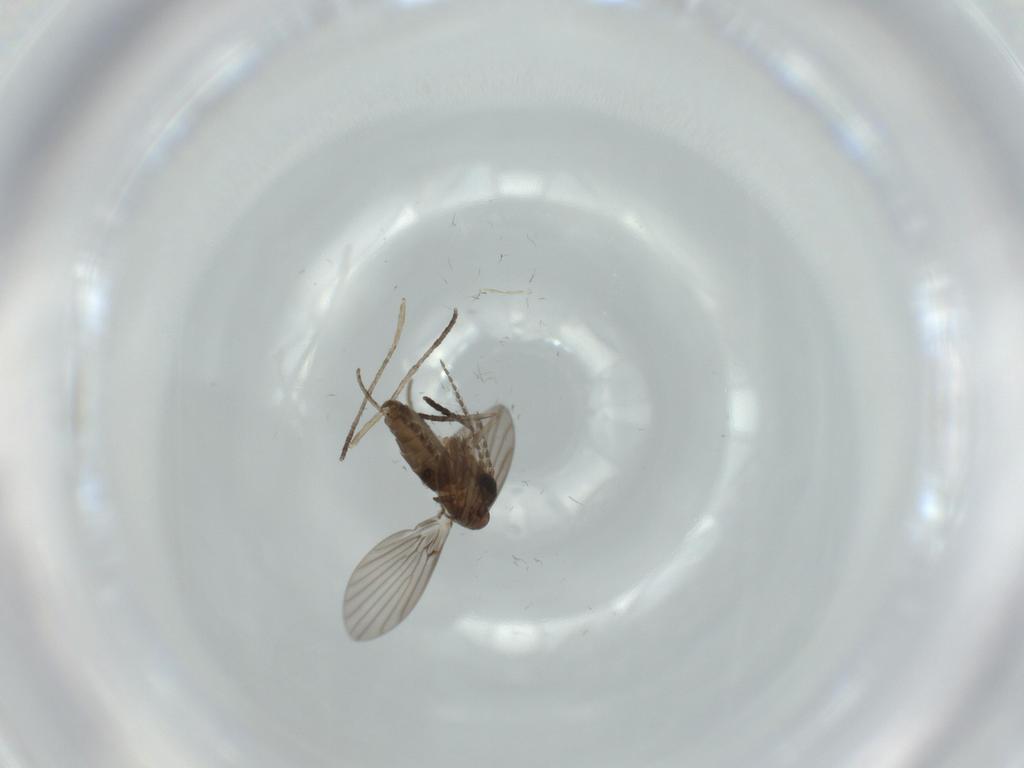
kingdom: Animalia
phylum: Arthropoda
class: Insecta
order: Diptera
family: Psychodidae
